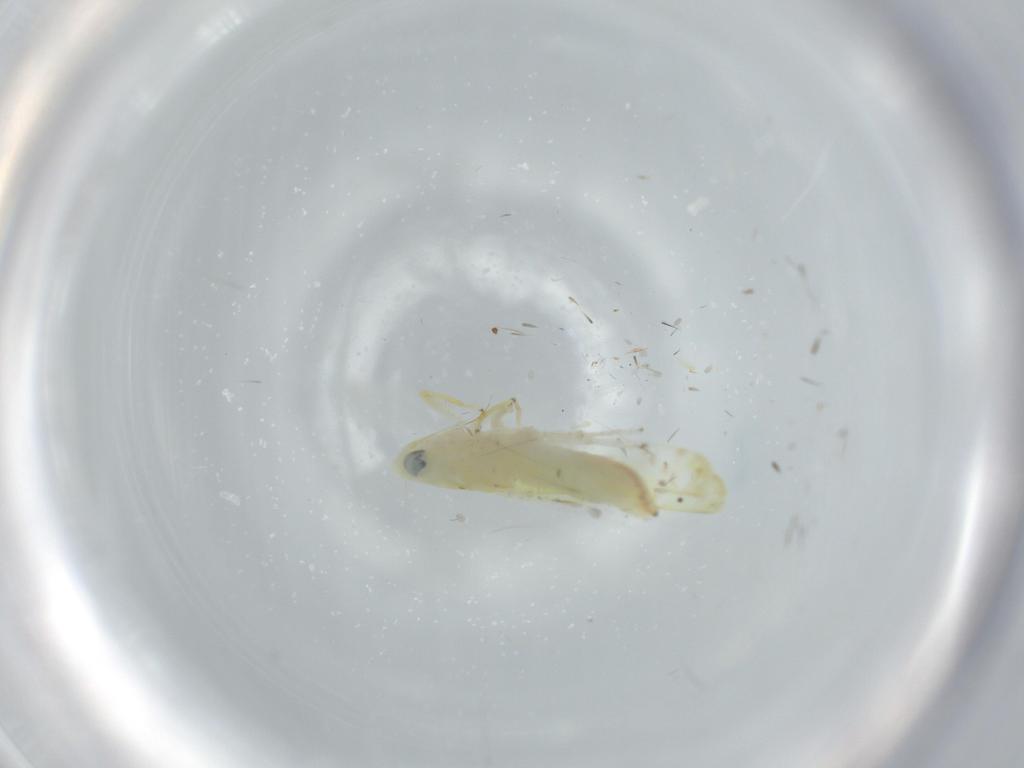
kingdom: Animalia
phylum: Arthropoda
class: Insecta
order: Hemiptera
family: Cicadellidae
